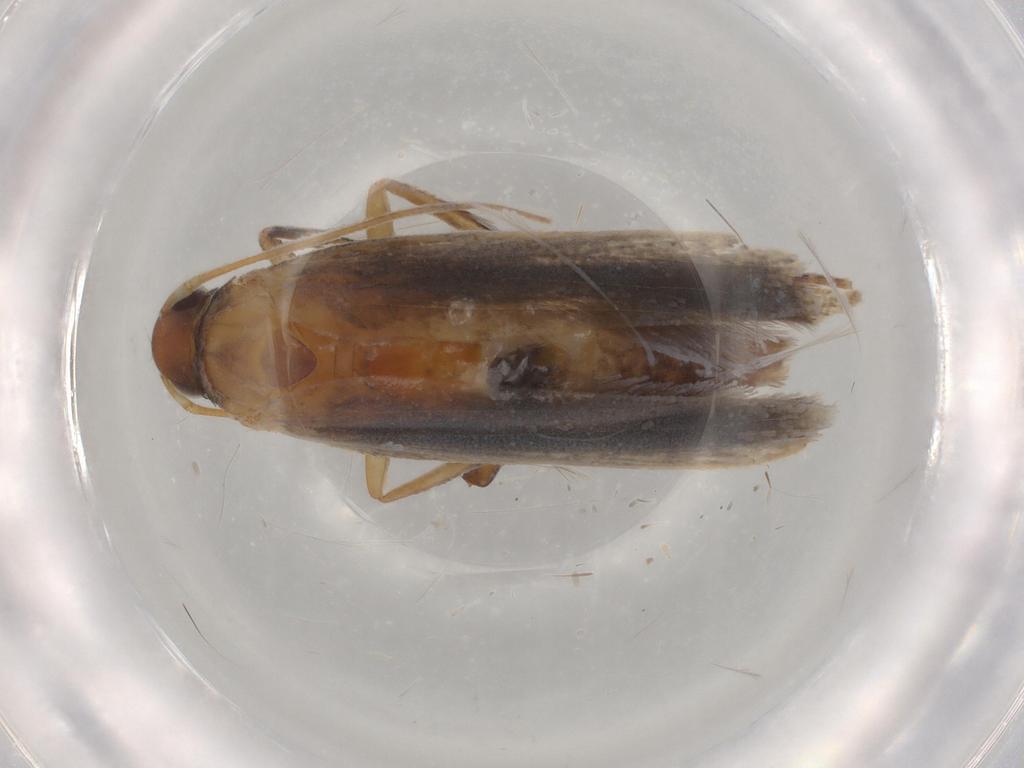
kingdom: Animalia
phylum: Arthropoda
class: Insecta
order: Lepidoptera
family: Gelechiidae
